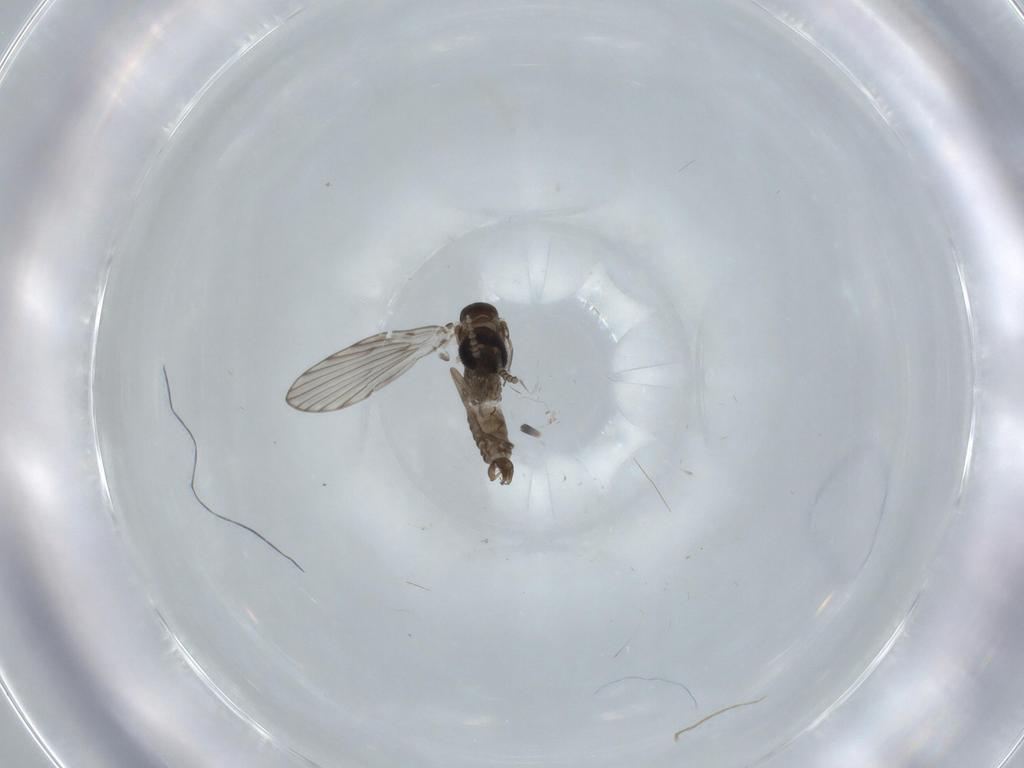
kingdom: Animalia
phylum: Arthropoda
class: Insecta
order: Diptera
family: Psychodidae
